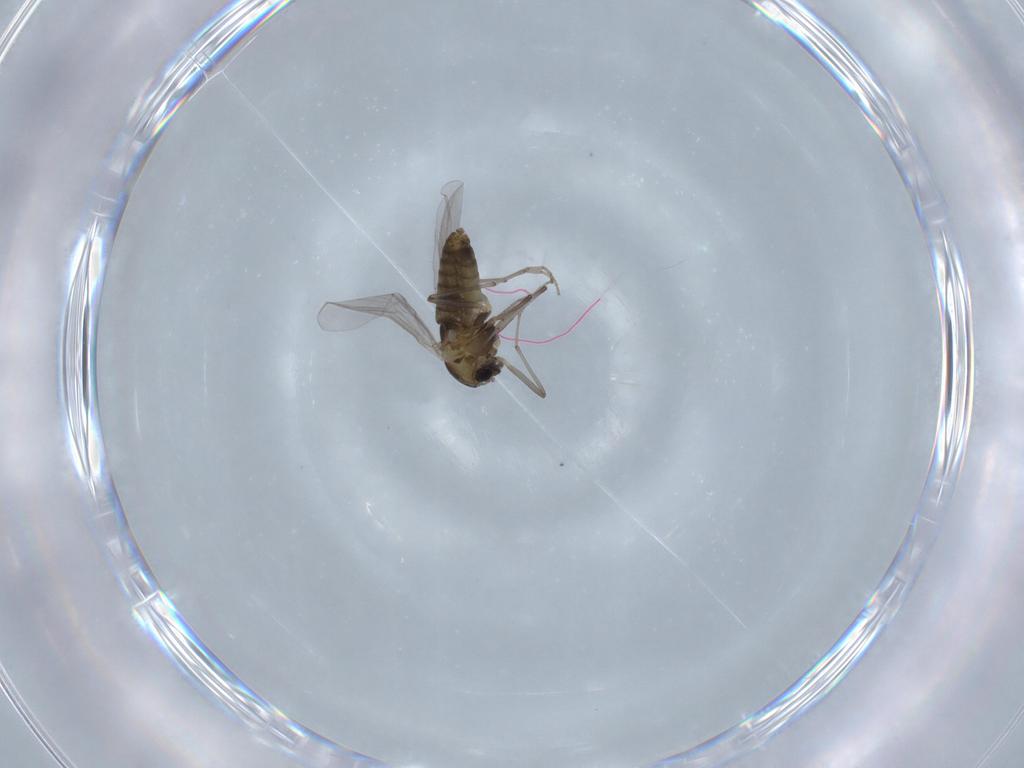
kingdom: Animalia
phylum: Arthropoda
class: Insecta
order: Diptera
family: Chironomidae
